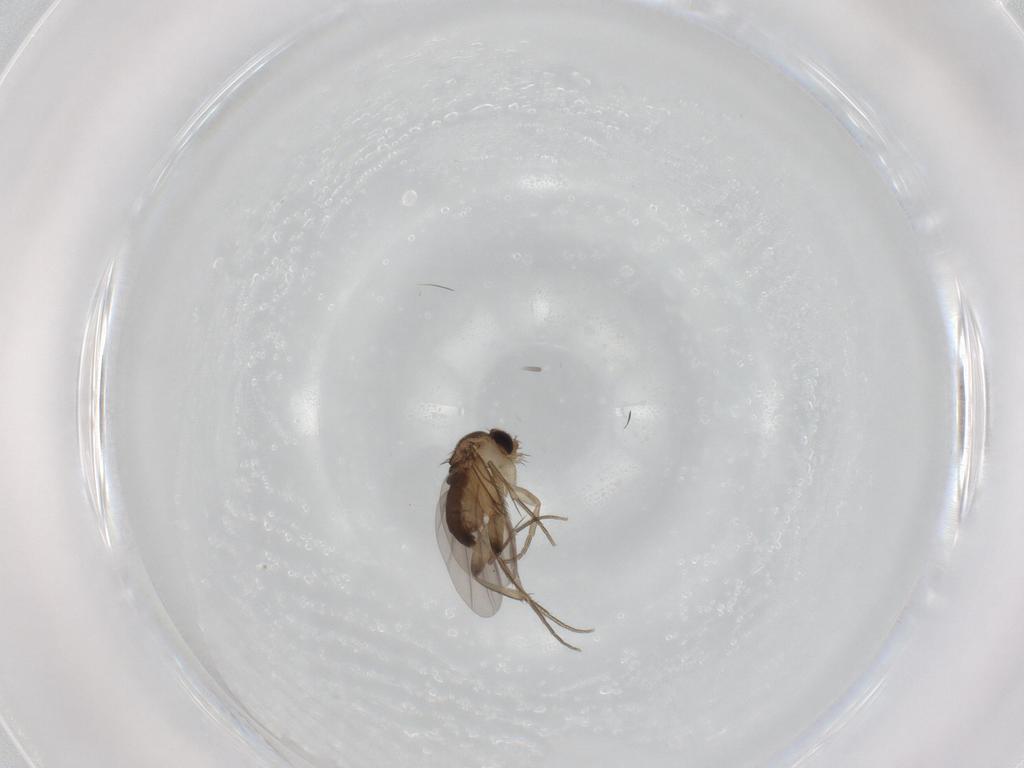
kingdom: Animalia
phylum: Arthropoda
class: Insecta
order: Diptera
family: Phoridae
